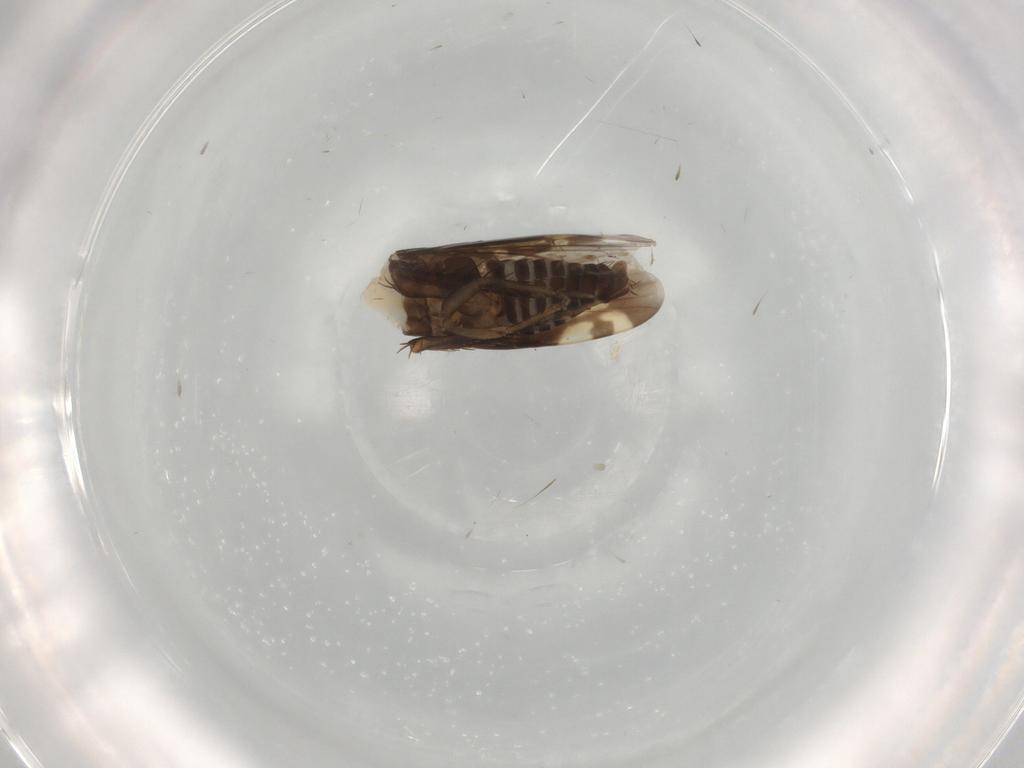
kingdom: Animalia
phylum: Arthropoda
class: Insecta
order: Hemiptera
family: Cicadellidae
